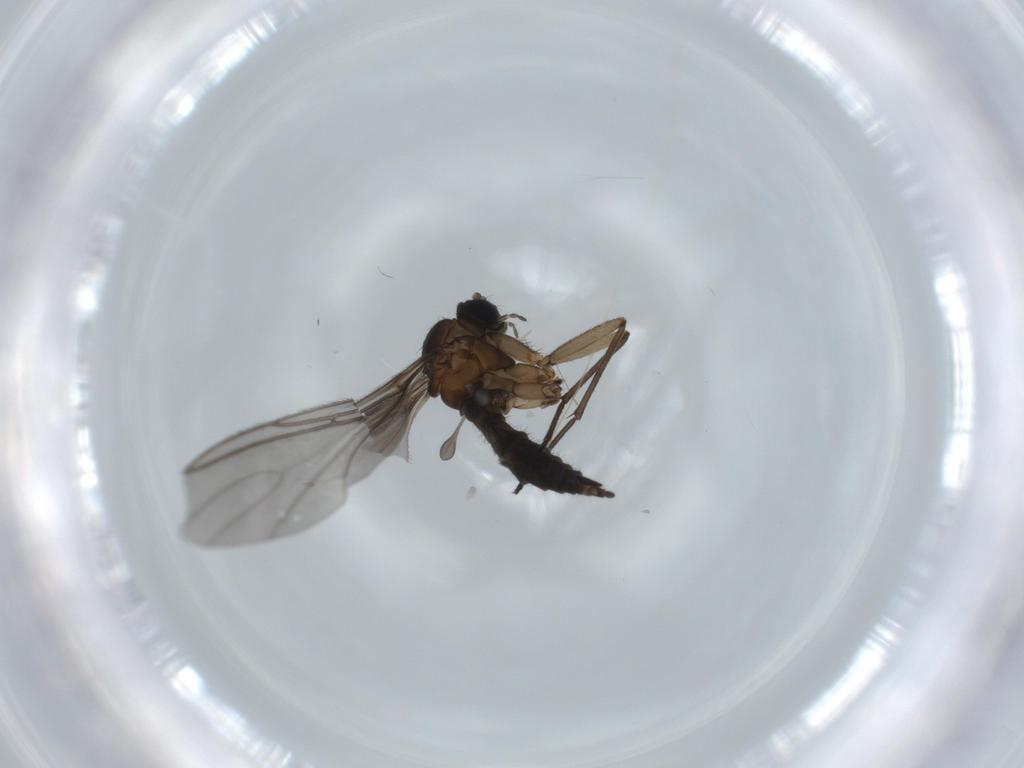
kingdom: Animalia
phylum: Arthropoda
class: Insecta
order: Diptera
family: Sciaridae
